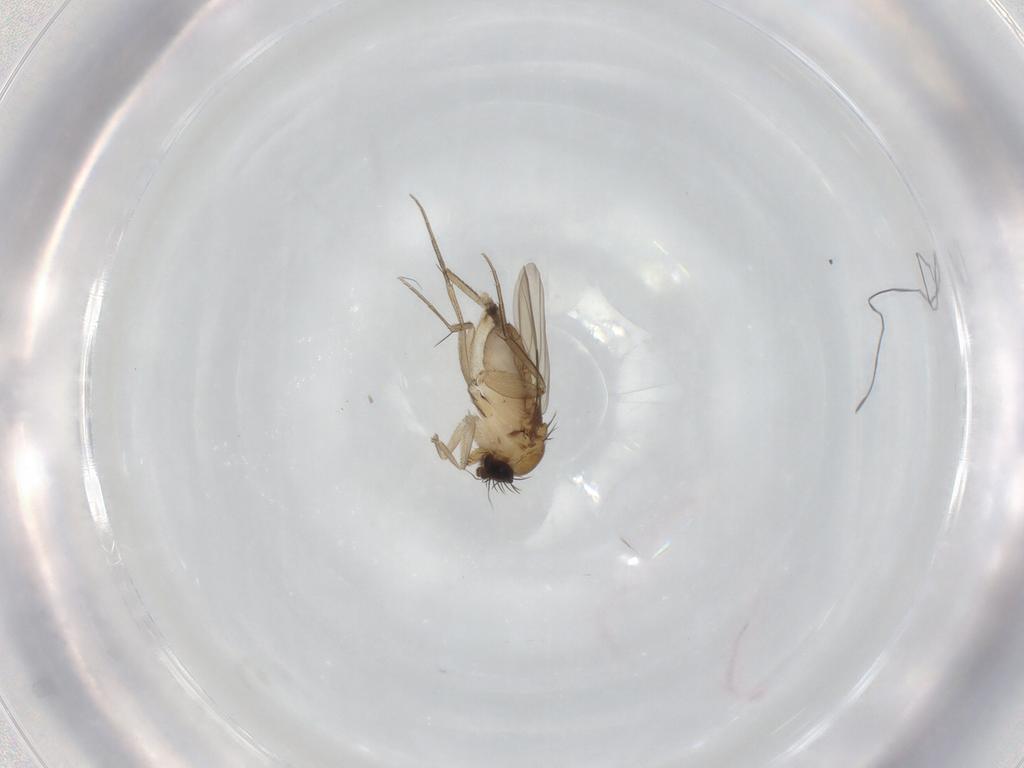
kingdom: Animalia
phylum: Arthropoda
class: Insecta
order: Diptera
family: Phoridae
